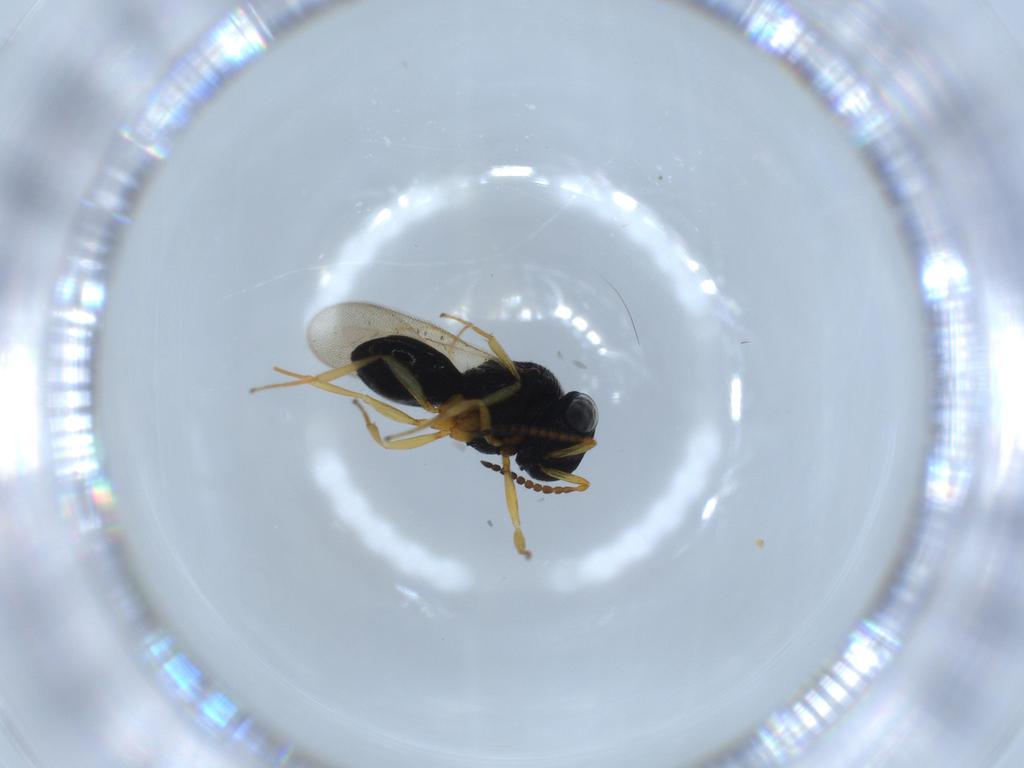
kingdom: Animalia
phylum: Arthropoda
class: Insecta
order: Hymenoptera
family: Scelionidae
